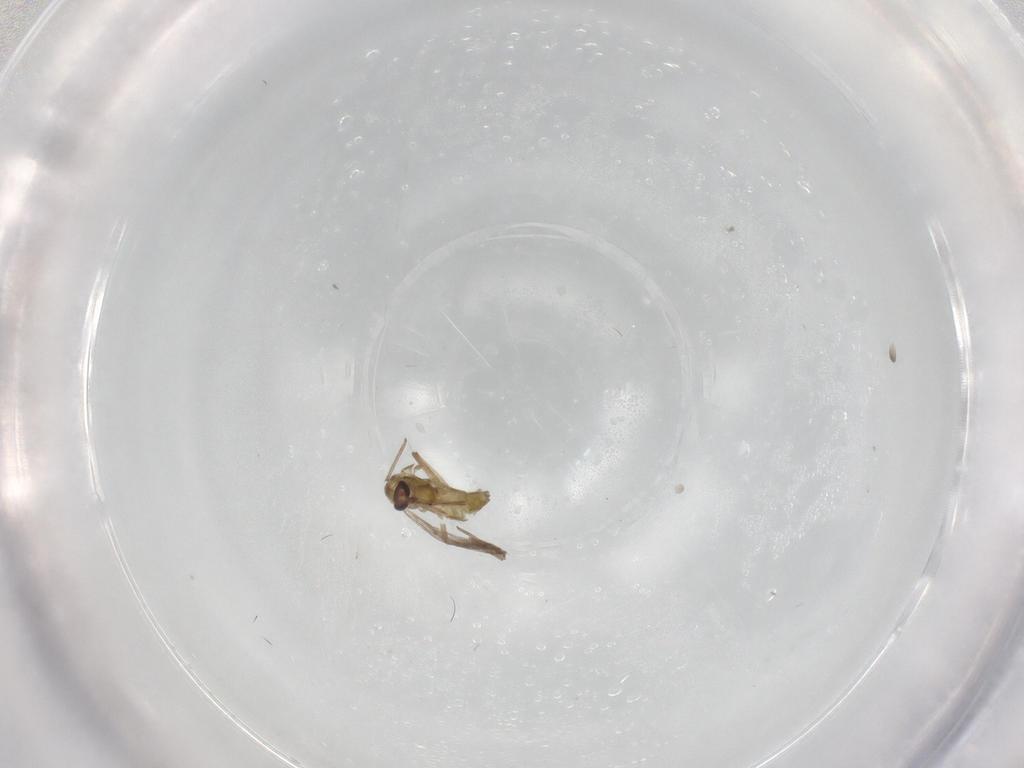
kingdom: Animalia
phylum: Arthropoda
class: Insecta
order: Diptera
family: Chironomidae
